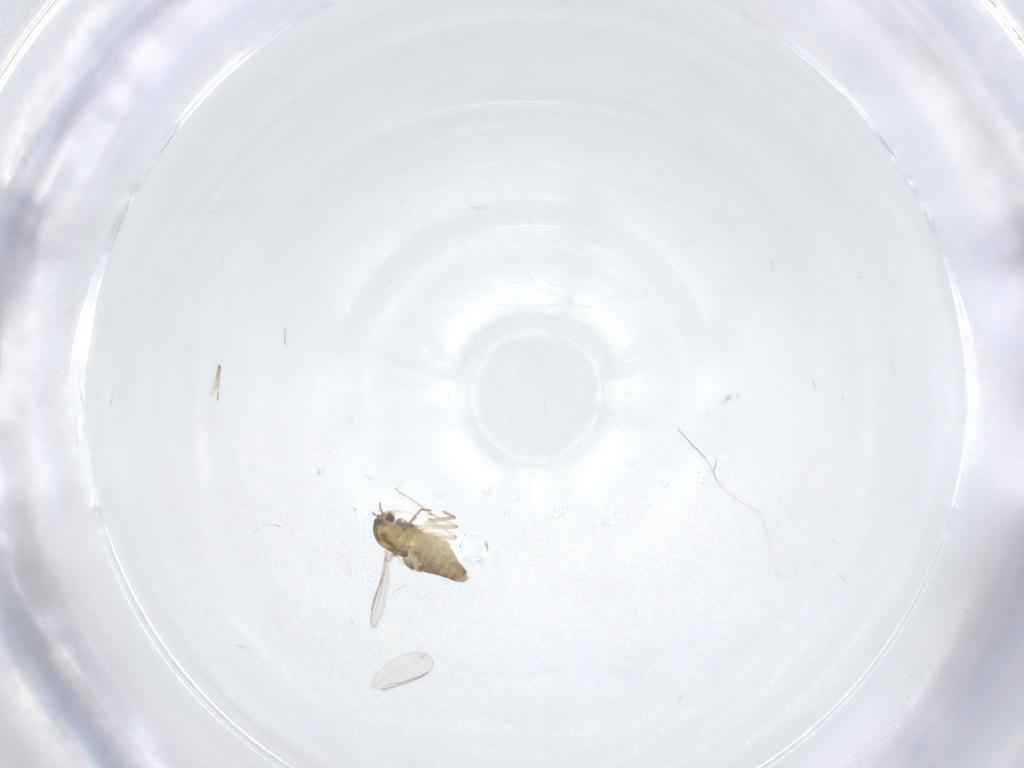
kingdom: Animalia
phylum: Arthropoda
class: Insecta
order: Diptera
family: Chironomidae
